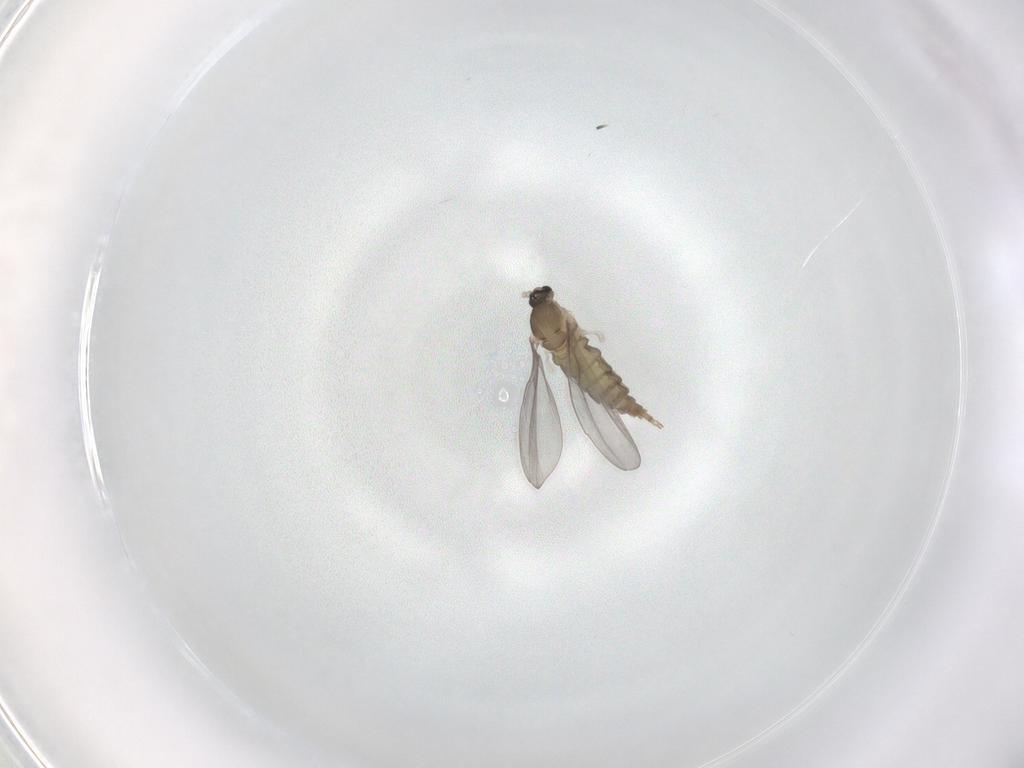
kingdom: Animalia
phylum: Arthropoda
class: Insecta
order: Diptera
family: Cecidomyiidae
